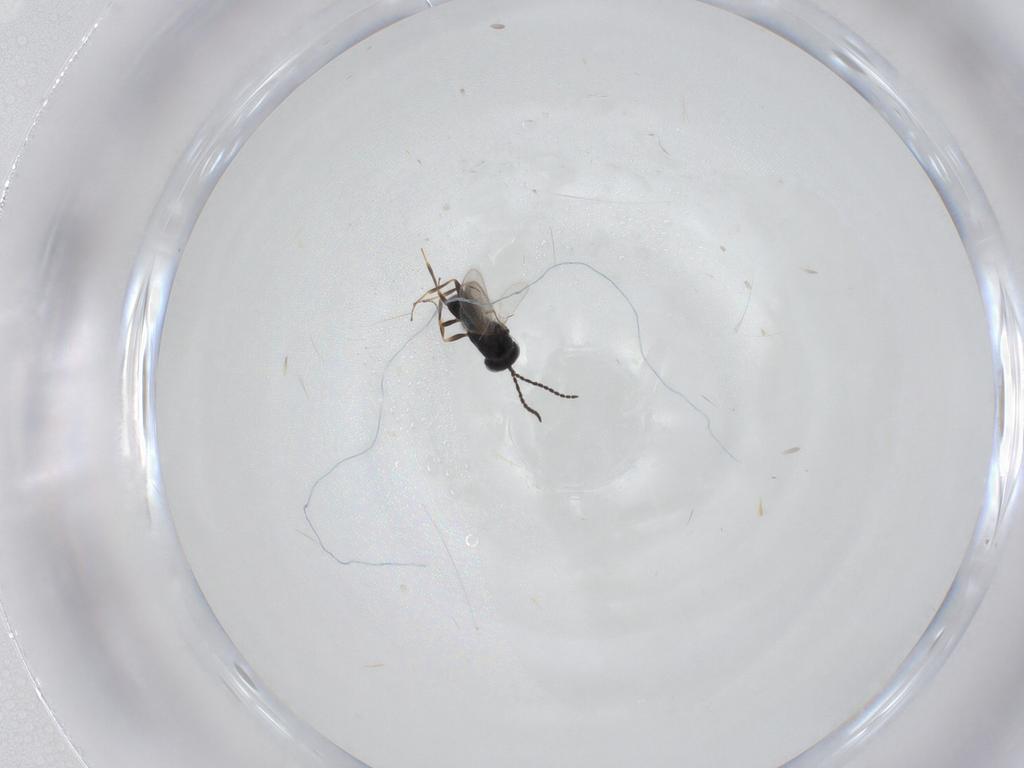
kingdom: Animalia
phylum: Arthropoda
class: Insecta
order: Hymenoptera
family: Scelionidae
